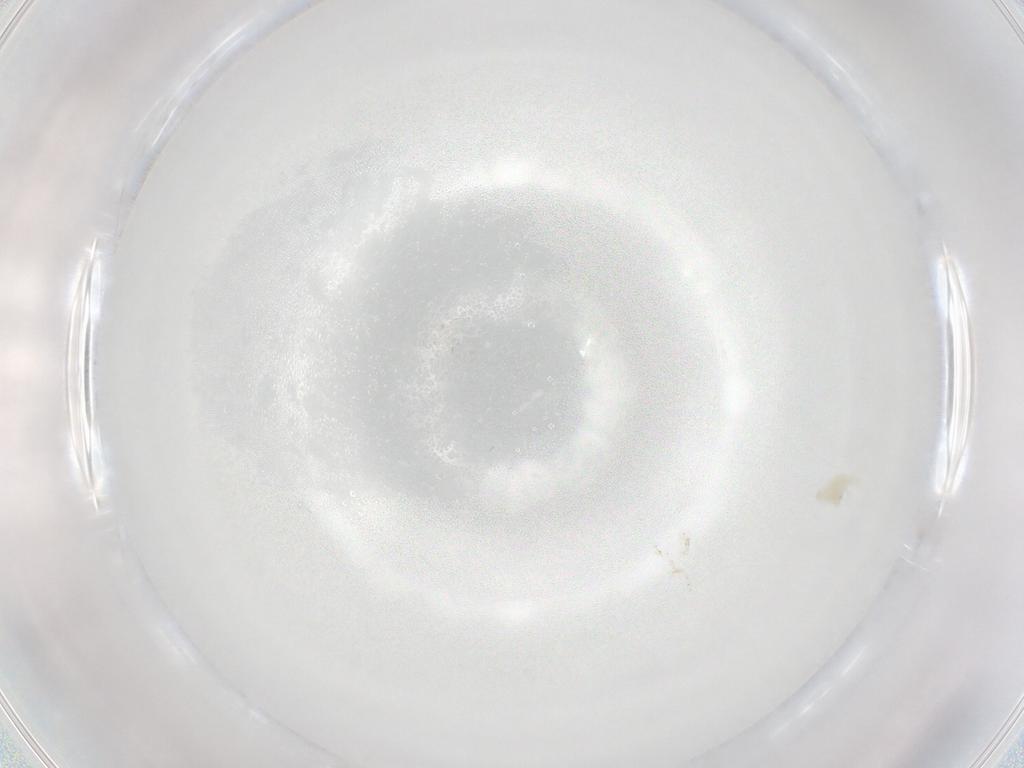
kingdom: Animalia
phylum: Arthropoda
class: Arachnida
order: Trombidiformes
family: Eupodidae
